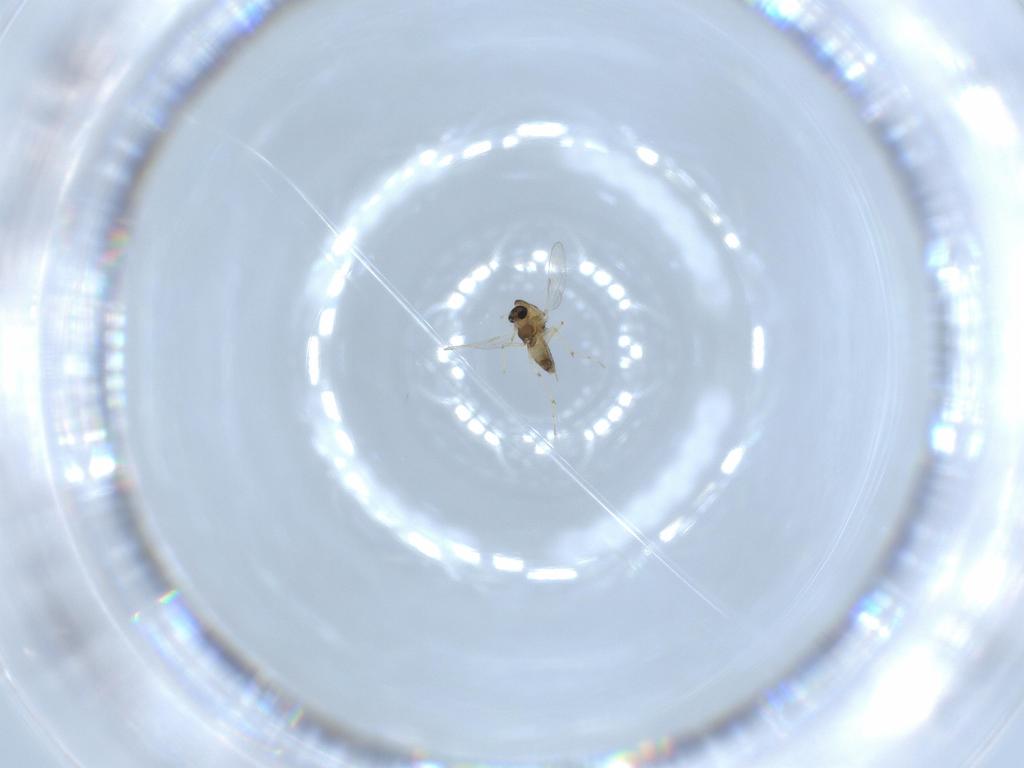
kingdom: Animalia
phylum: Arthropoda
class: Insecta
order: Diptera
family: Chironomidae
